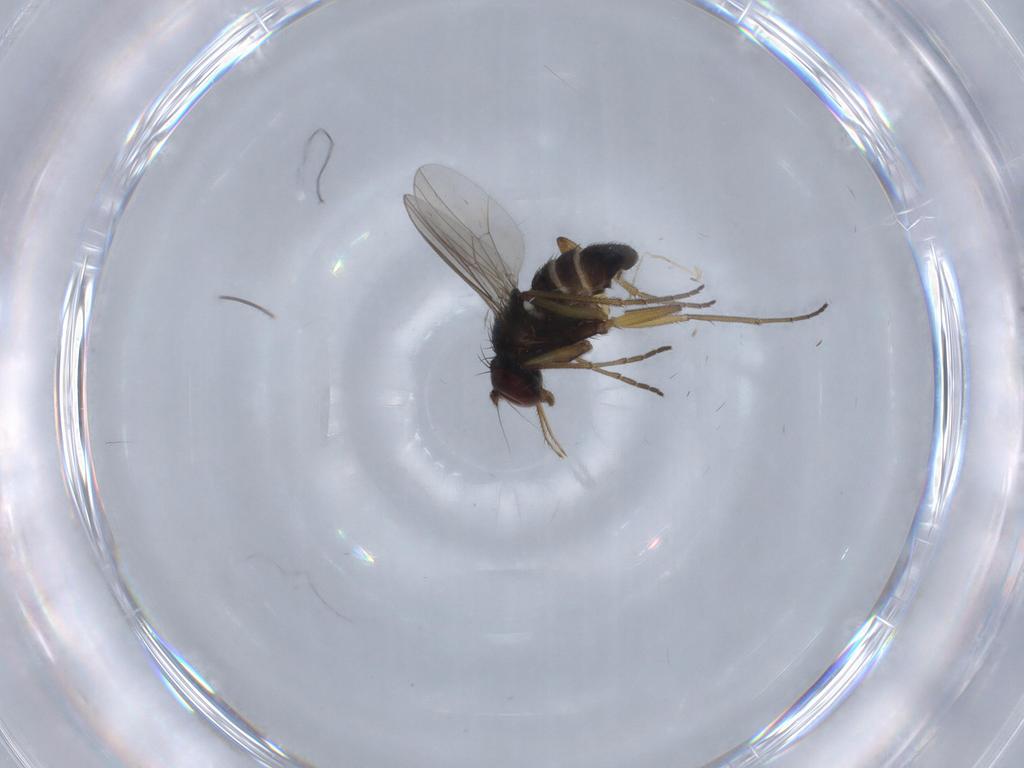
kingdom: Animalia
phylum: Arthropoda
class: Insecta
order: Diptera
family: Dolichopodidae
